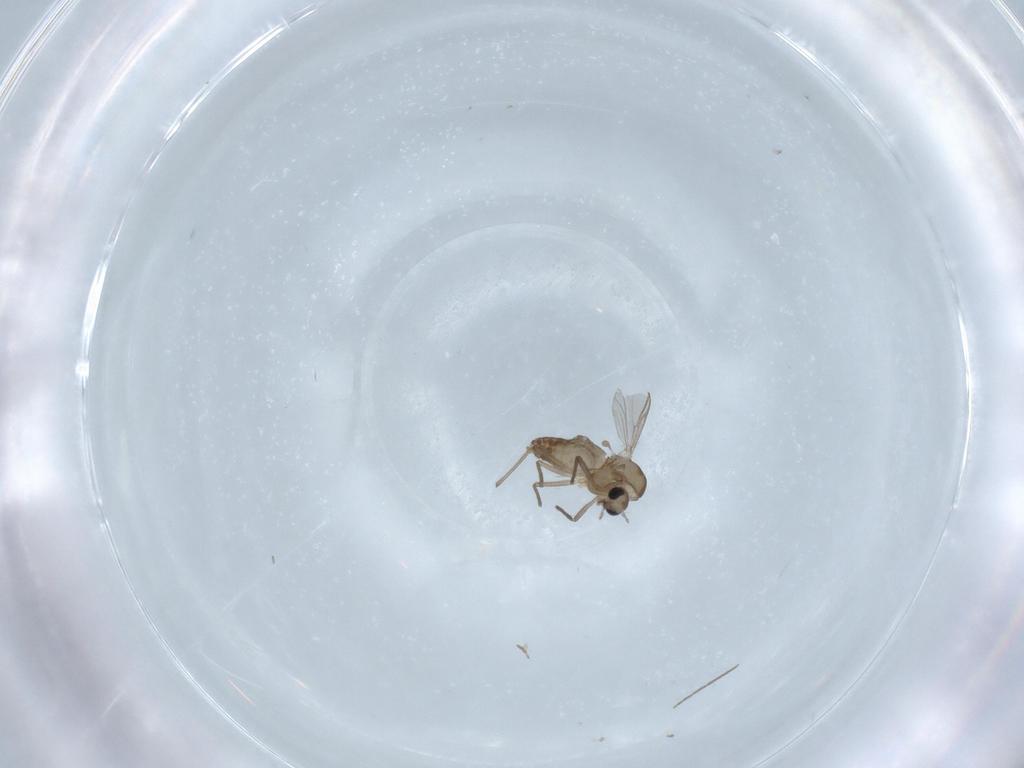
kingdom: Animalia
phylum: Arthropoda
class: Insecta
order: Diptera
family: Chironomidae
